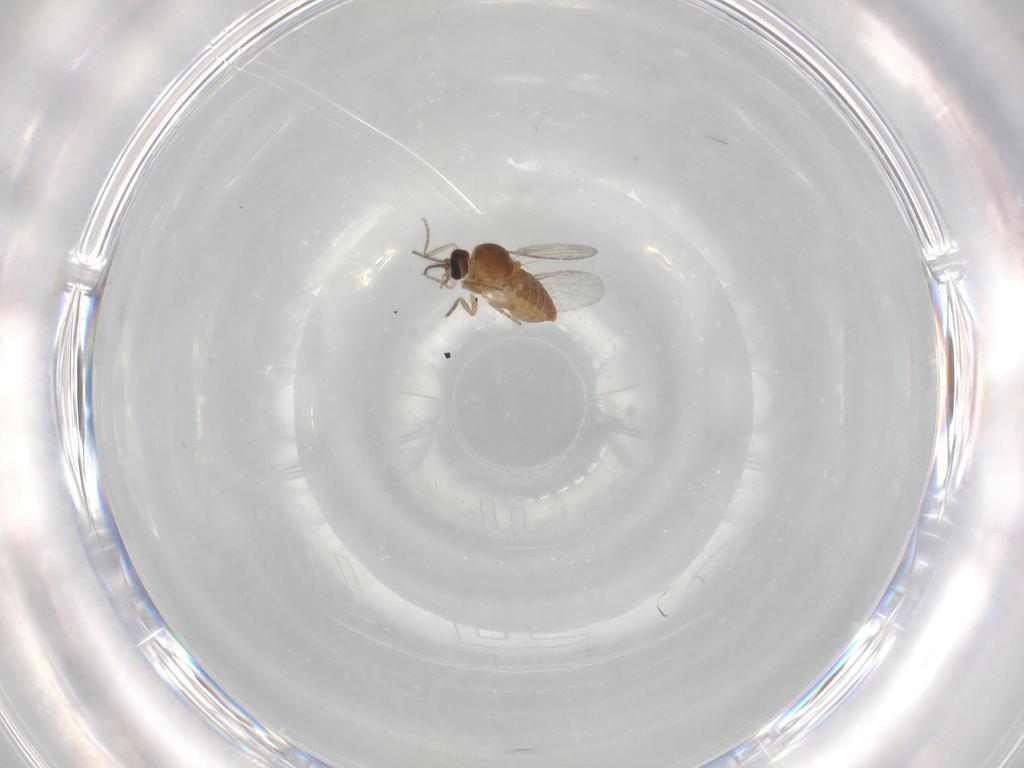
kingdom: Animalia
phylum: Arthropoda
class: Insecta
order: Diptera
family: Ceratopogonidae
